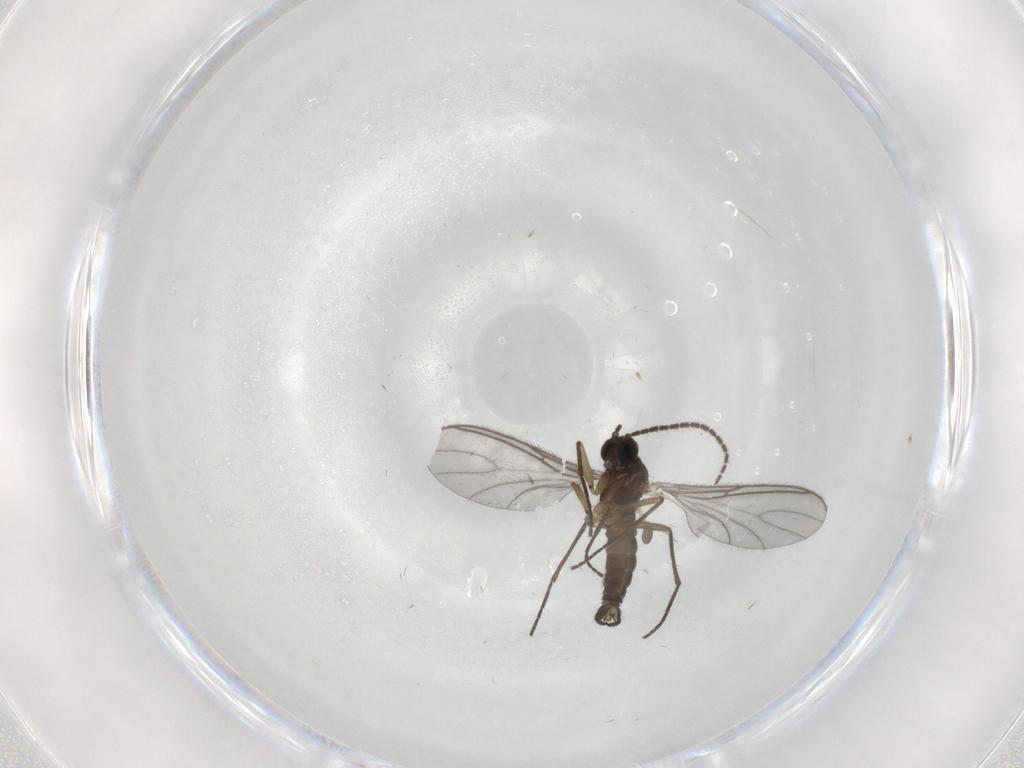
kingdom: Animalia
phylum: Arthropoda
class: Insecta
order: Diptera
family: Sciaridae
